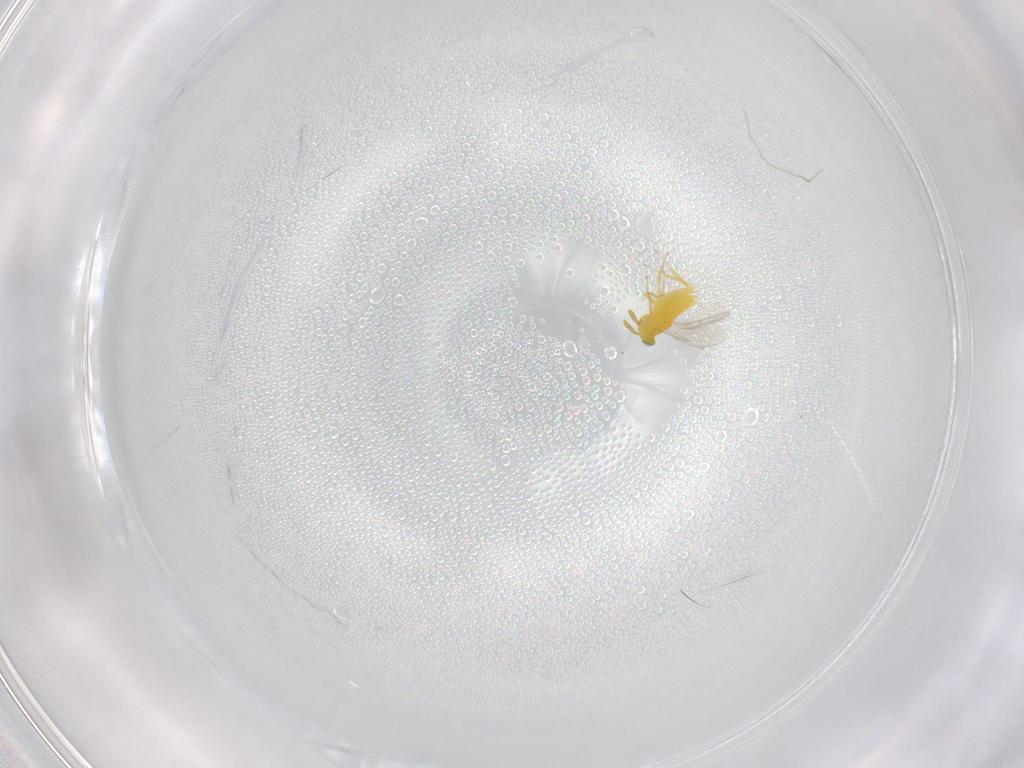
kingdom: Animalia
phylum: Arthropoda
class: Insecta
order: Hymenoptera
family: Aphelinidae
